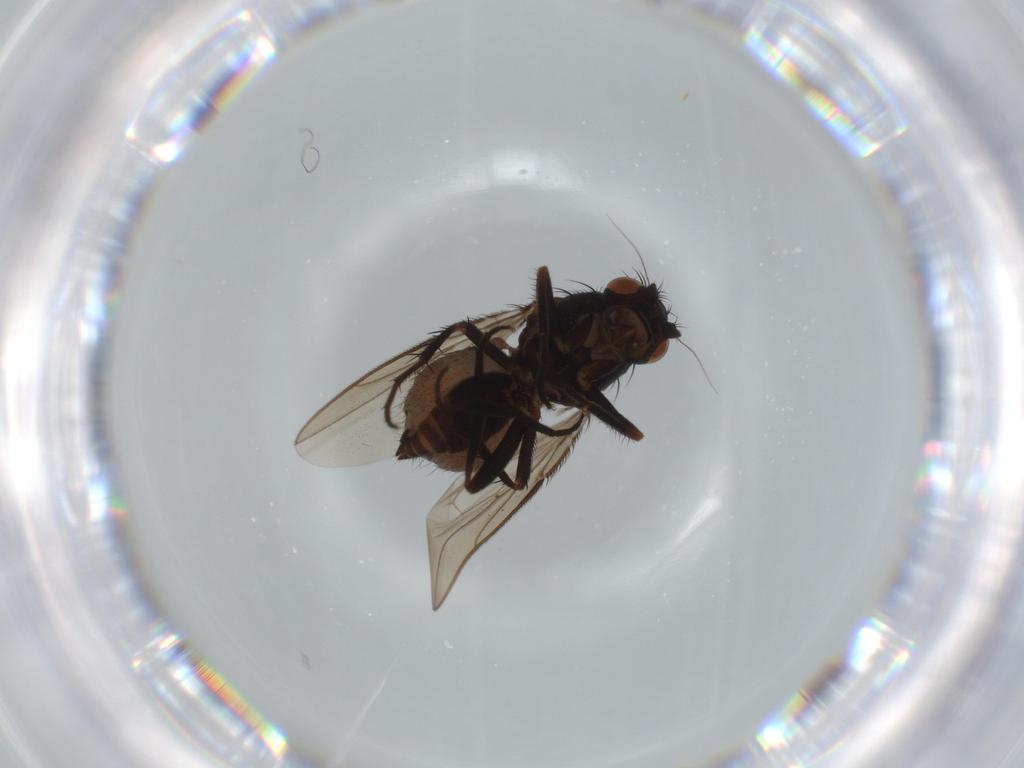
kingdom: Animalia
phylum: Arthropoda
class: Insecta
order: Diptera
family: Sphaeroceridae
